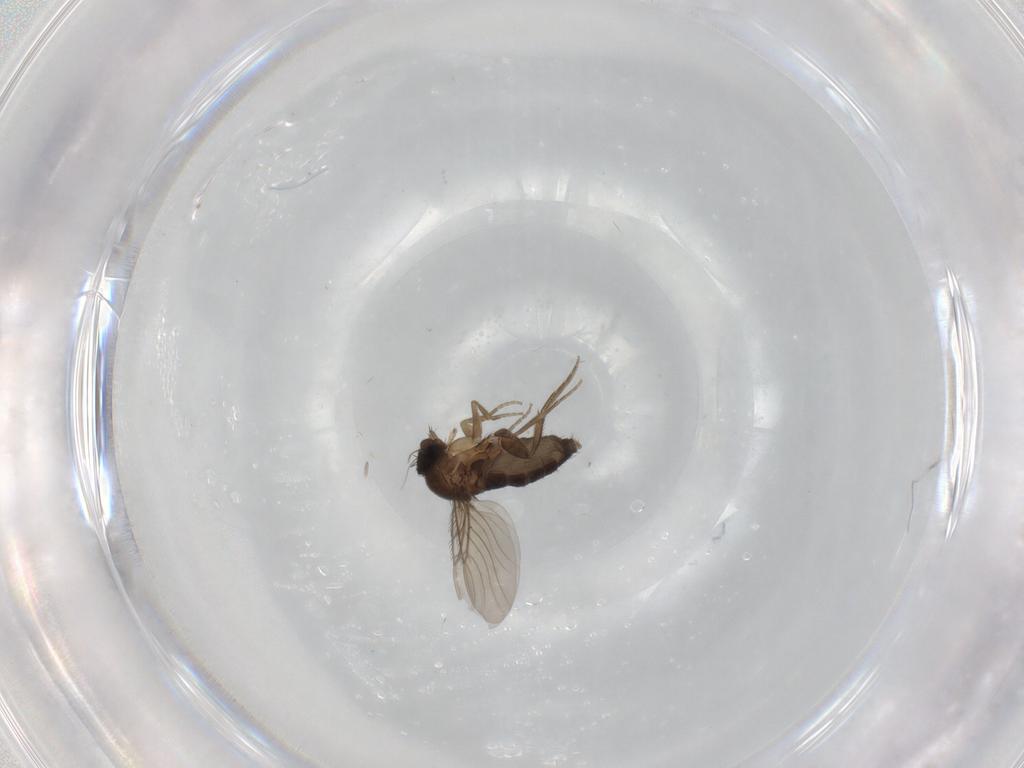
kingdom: Animalia
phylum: Arthropoda
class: Insecta
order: Diptera
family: Phoridae
